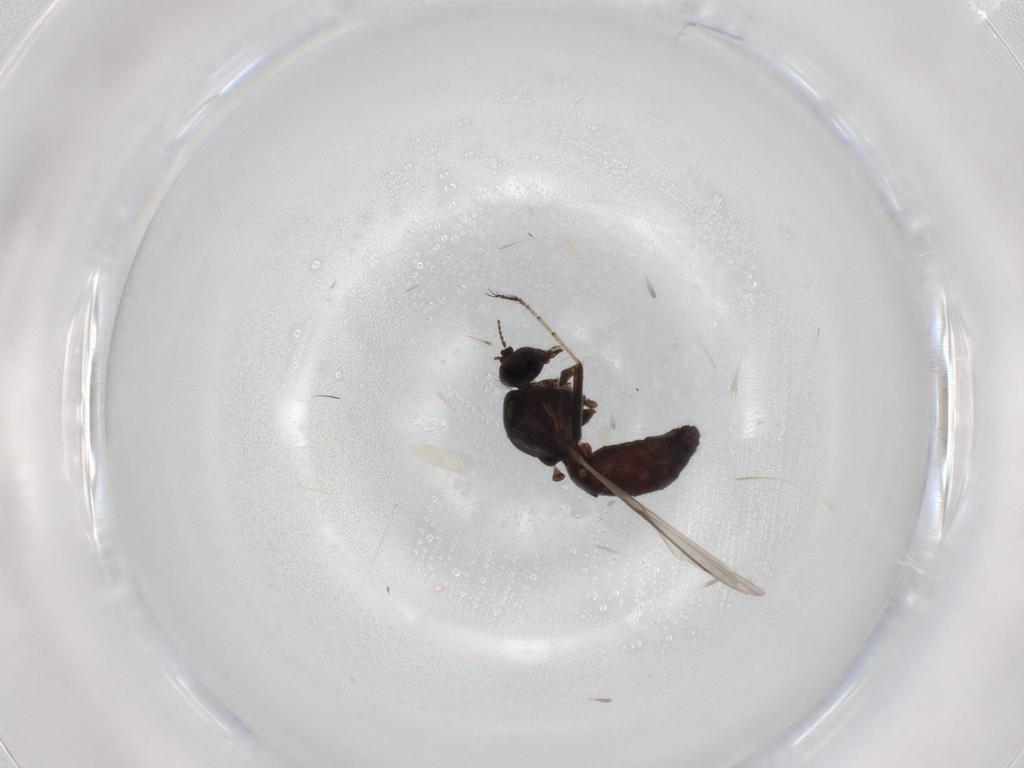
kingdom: Animalia
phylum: Arthropoda
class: Insecta
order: Diptera
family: Ceratopogonidae
